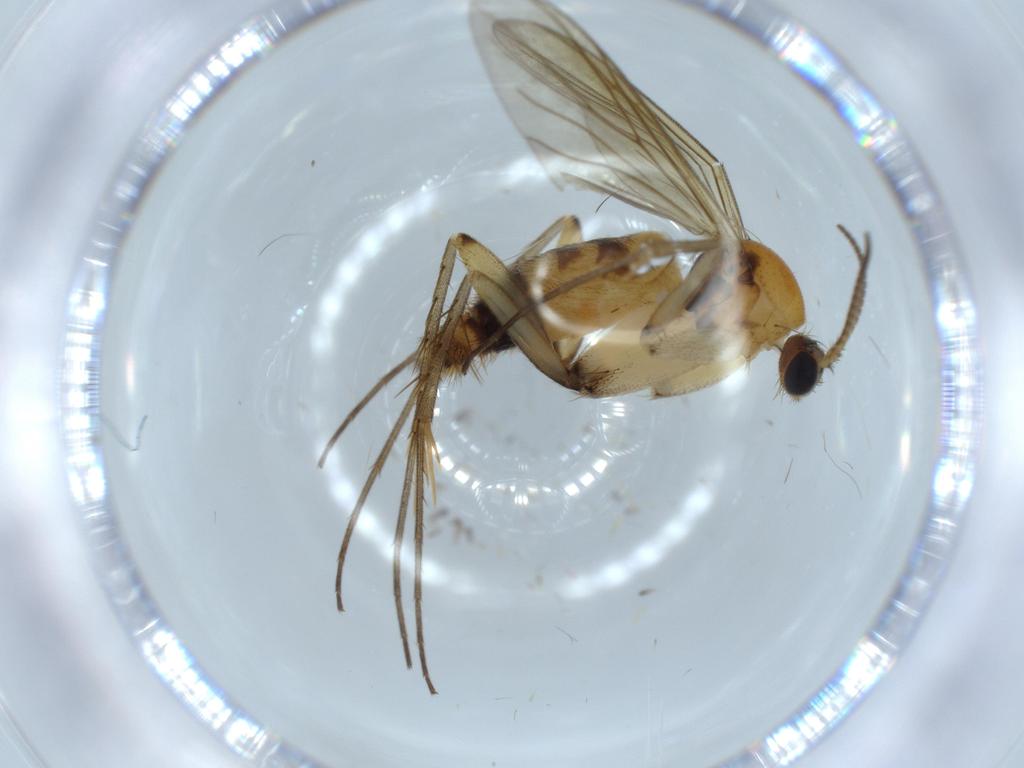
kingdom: Animalia
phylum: Arthropoda
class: Insecta
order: Diptera
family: Mycetophilidae
